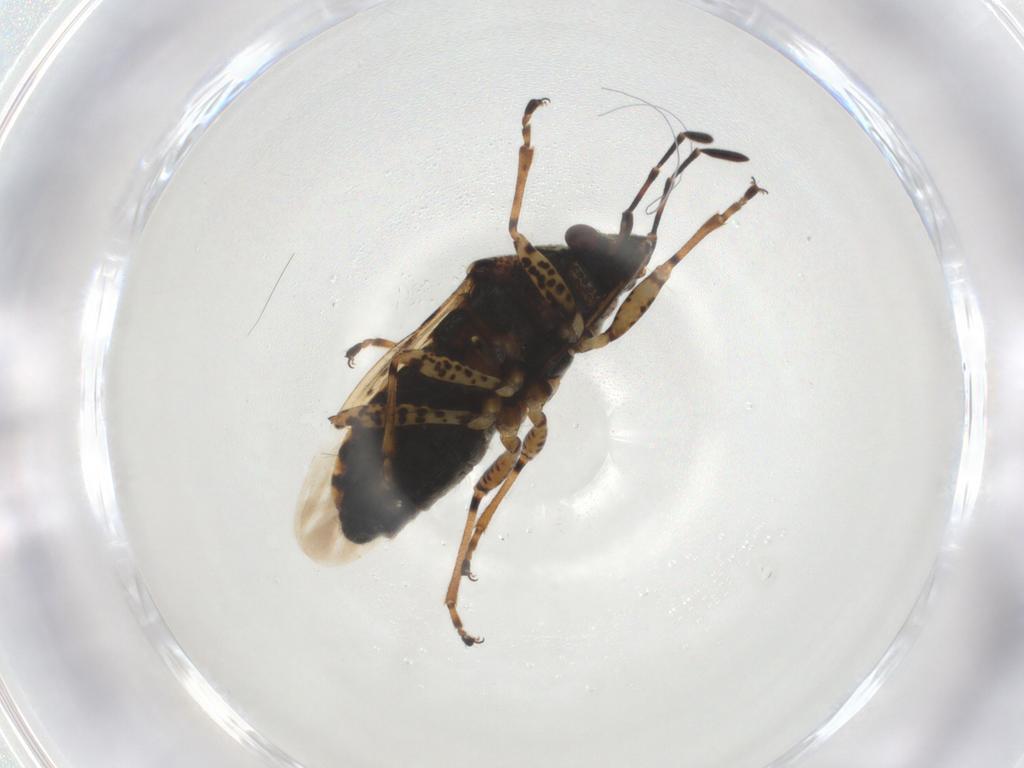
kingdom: Animalia
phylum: Arthropoda
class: Insecta
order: Hemiptera
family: Lygaeidae
